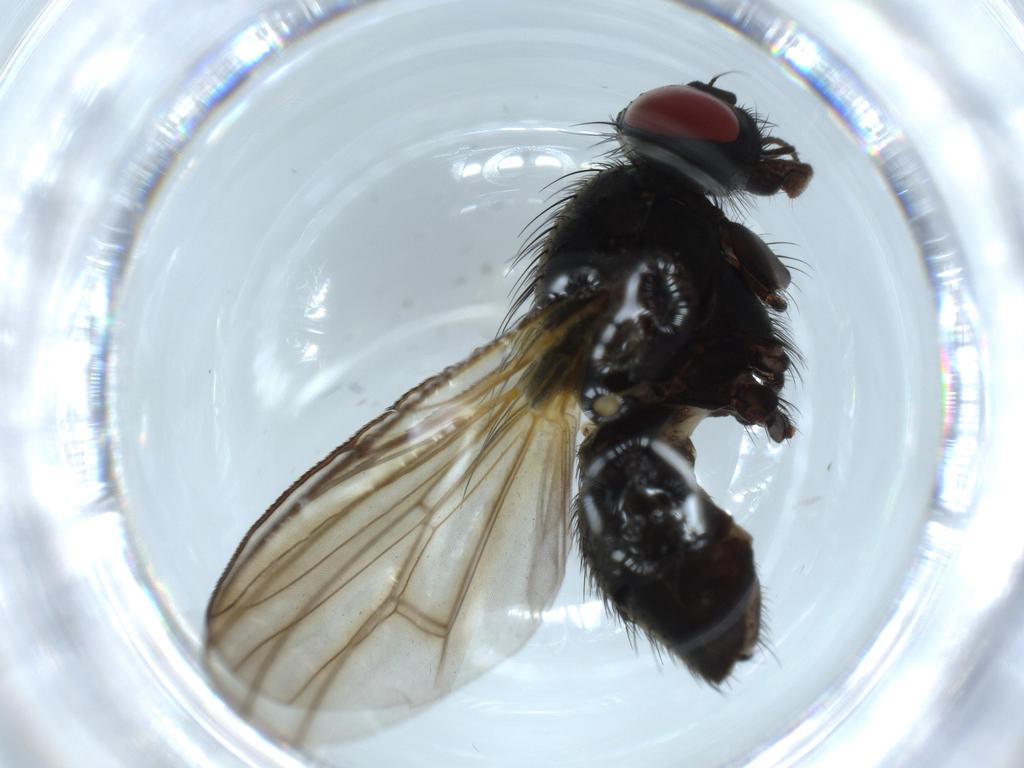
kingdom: Animalia
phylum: Arthropoda
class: Insecta
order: Diptera
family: Muscidae
